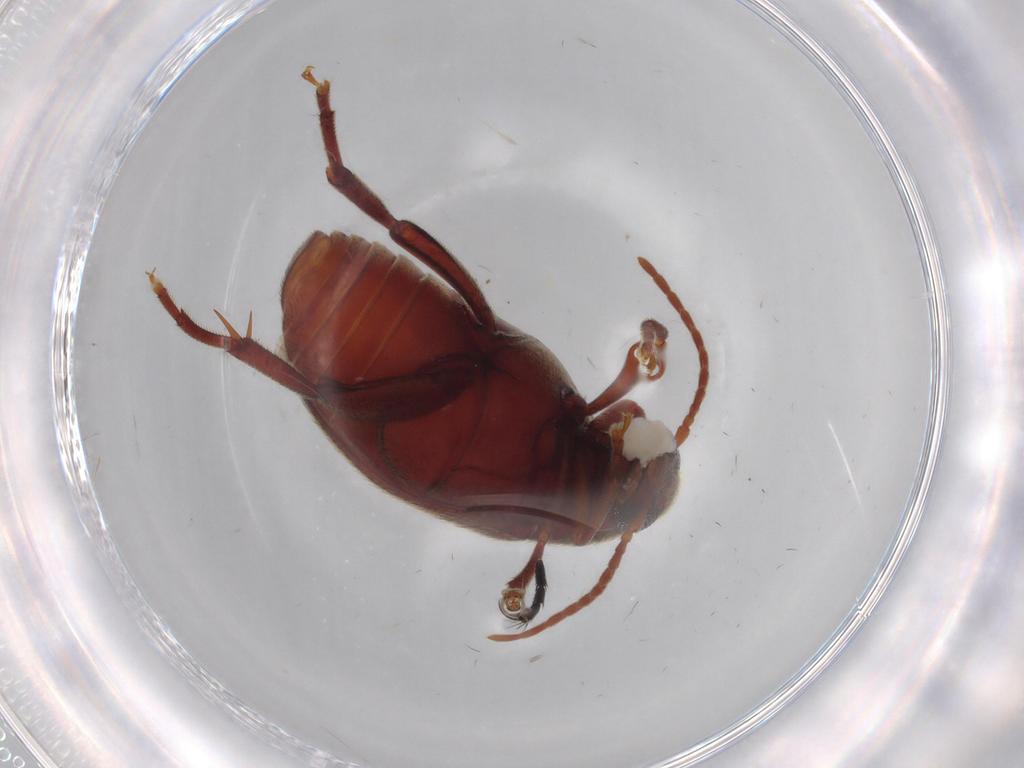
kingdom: Animalia
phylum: Arthropoda
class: Insecta
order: Coleoptera
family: Chrysomelidae
